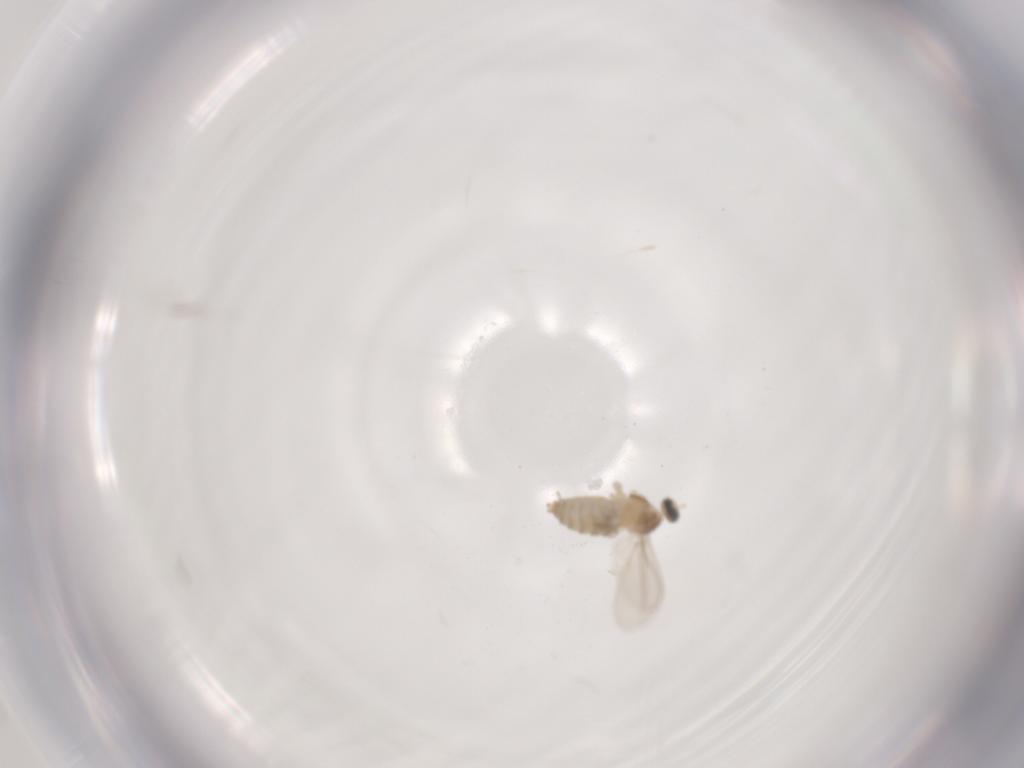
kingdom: Animalia
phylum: Arthropoda
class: Insecta
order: Diptera
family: Cecidomyiidae
